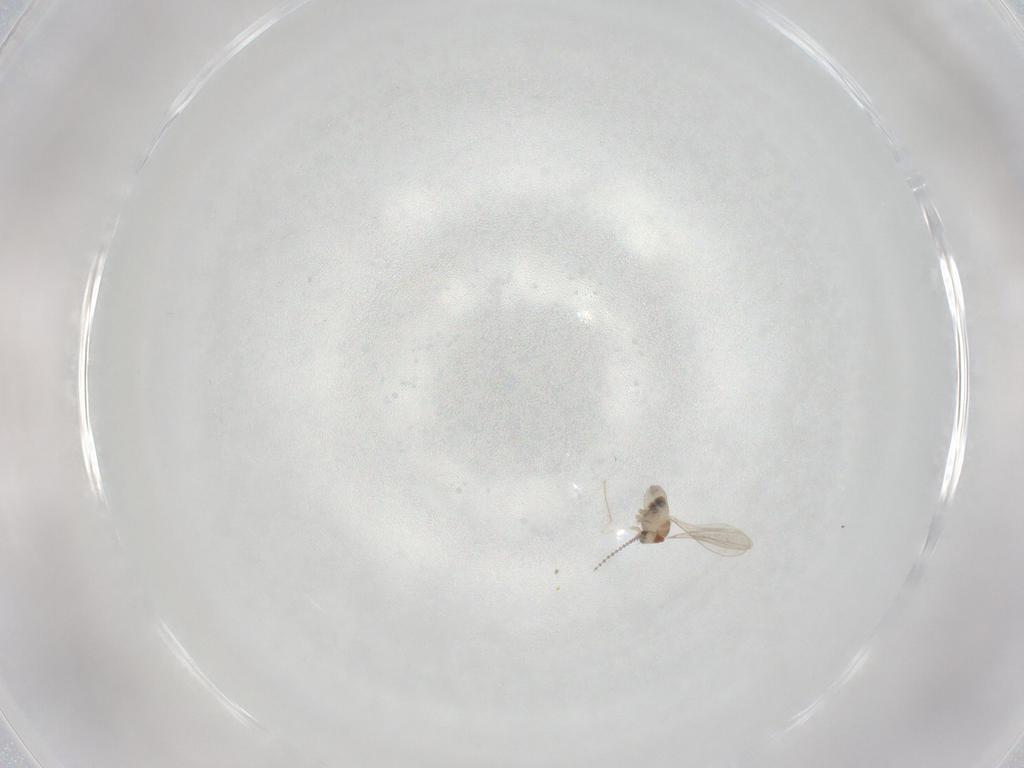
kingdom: Animalia
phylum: Arthropoda
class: Insecta
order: Diptera
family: Cecidomyiidae
